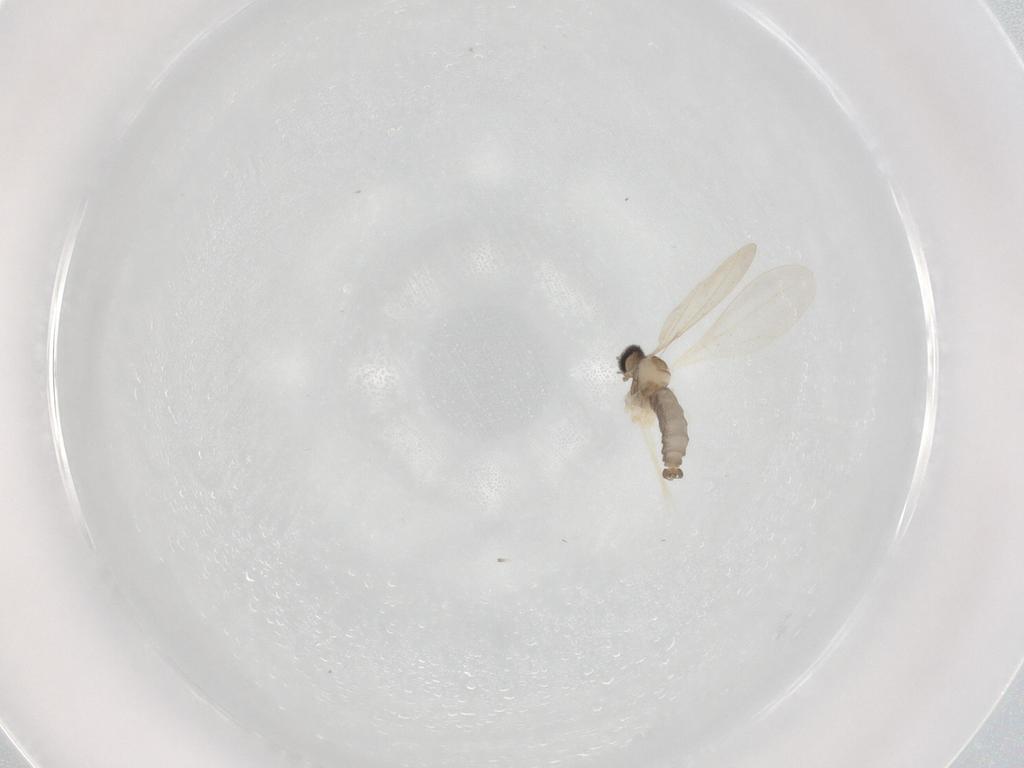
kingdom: Animalia
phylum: Arthropoda
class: Insecta
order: Diptera
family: Cecidomyiidae
